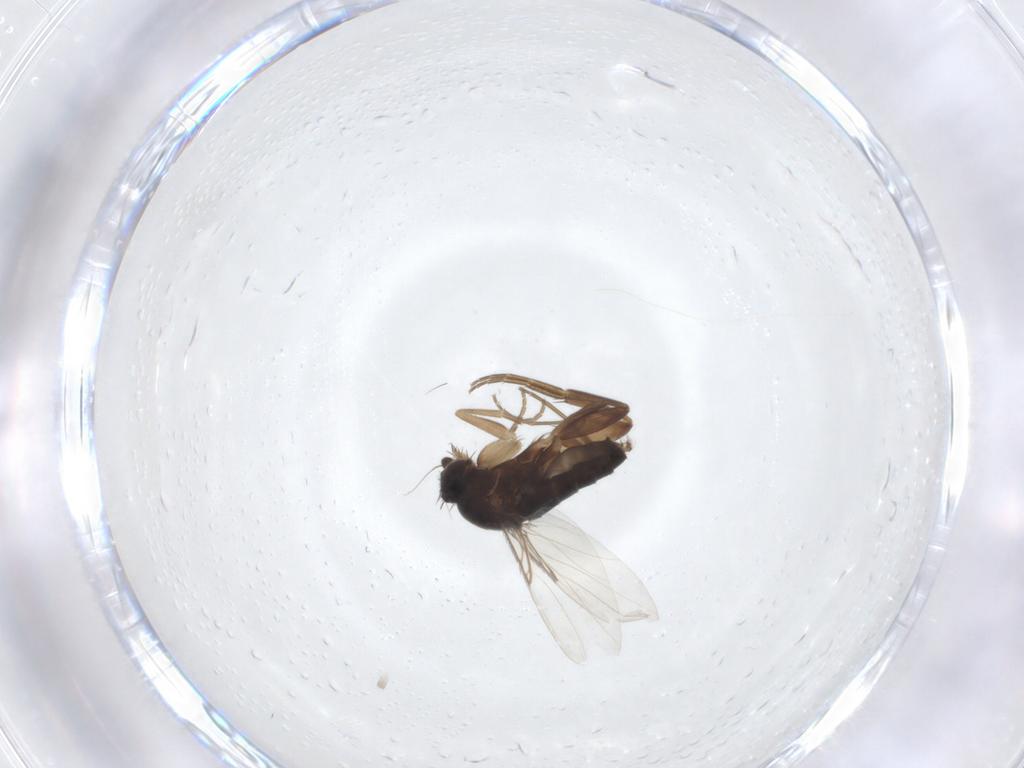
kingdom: Animalia
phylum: Arthropoda
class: Insecta
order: Diptera
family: Phoridae
